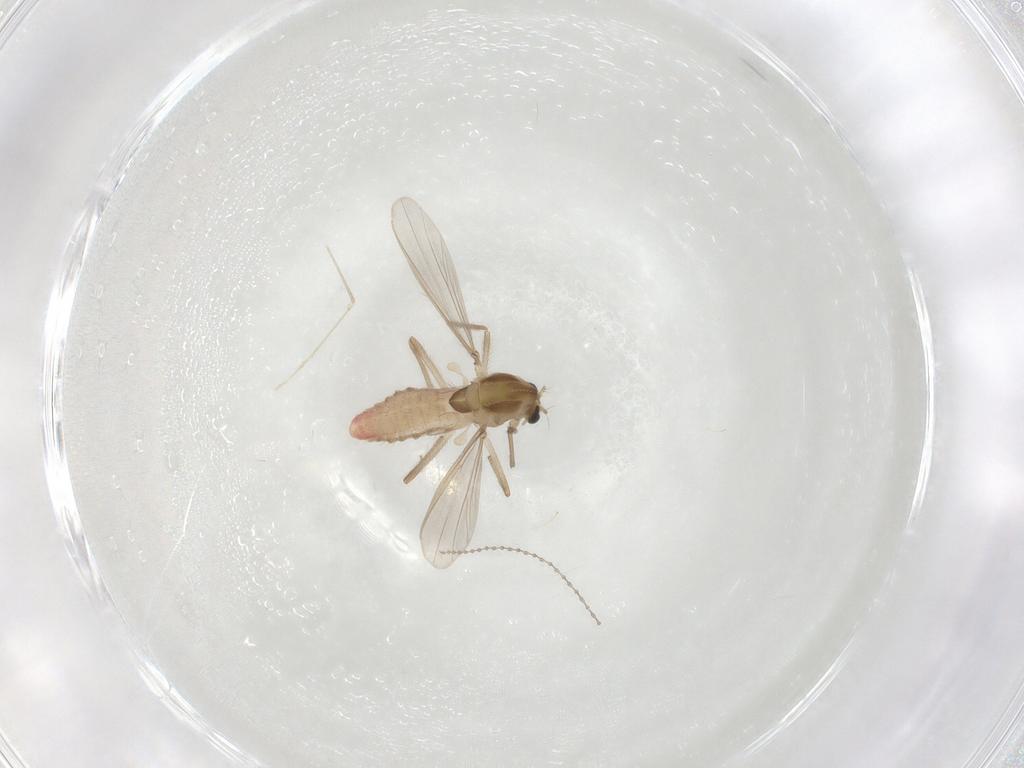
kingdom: Animalia
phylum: Arthropoda
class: Insecta
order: Diptera
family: Chironomidae
